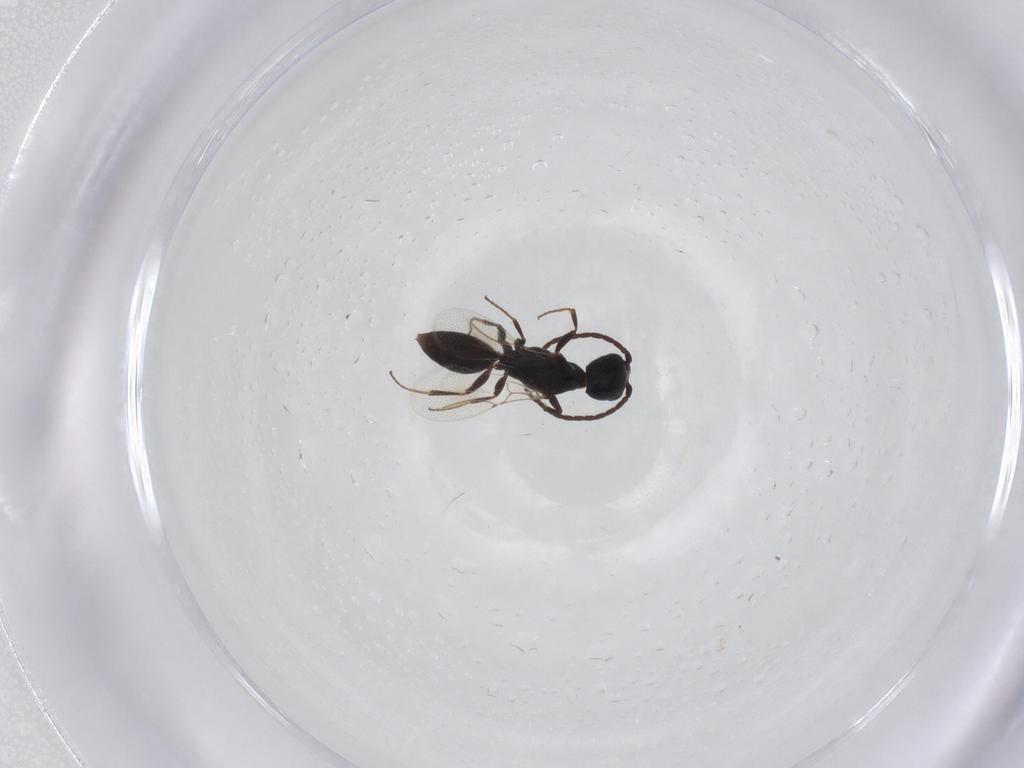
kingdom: Animalia
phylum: Arthropoda
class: Insecta
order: Hymenoptera
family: Bethylidae
